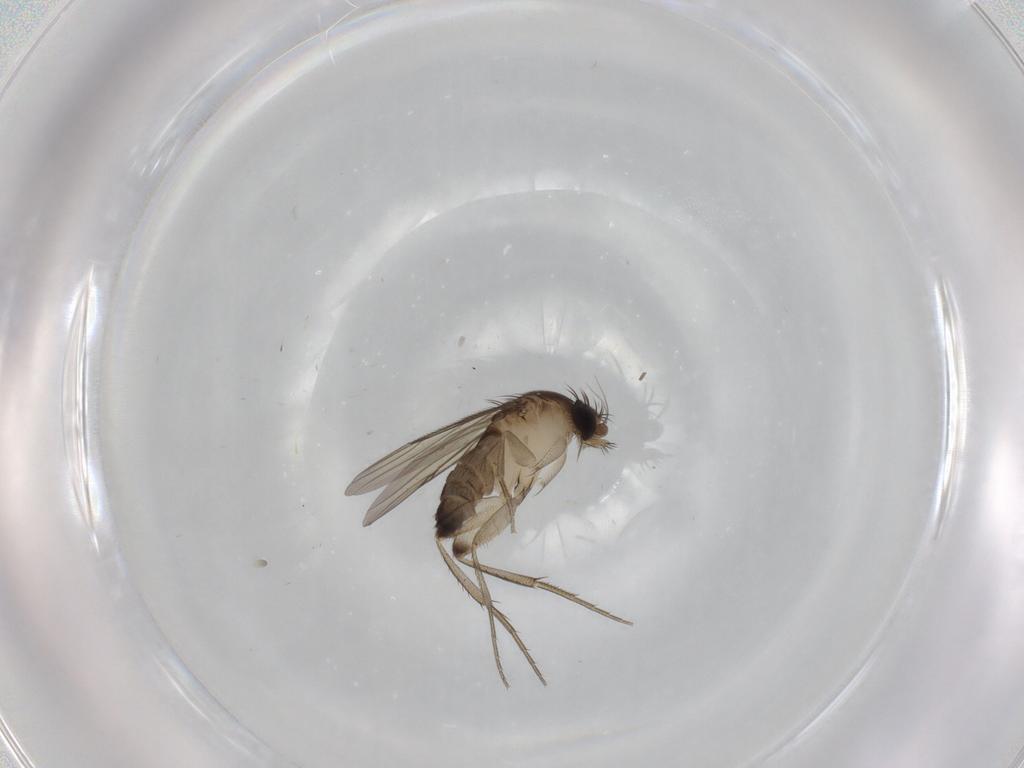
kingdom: Animalia
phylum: Arthropoda
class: Insecta
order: Diptera
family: Phoridae
